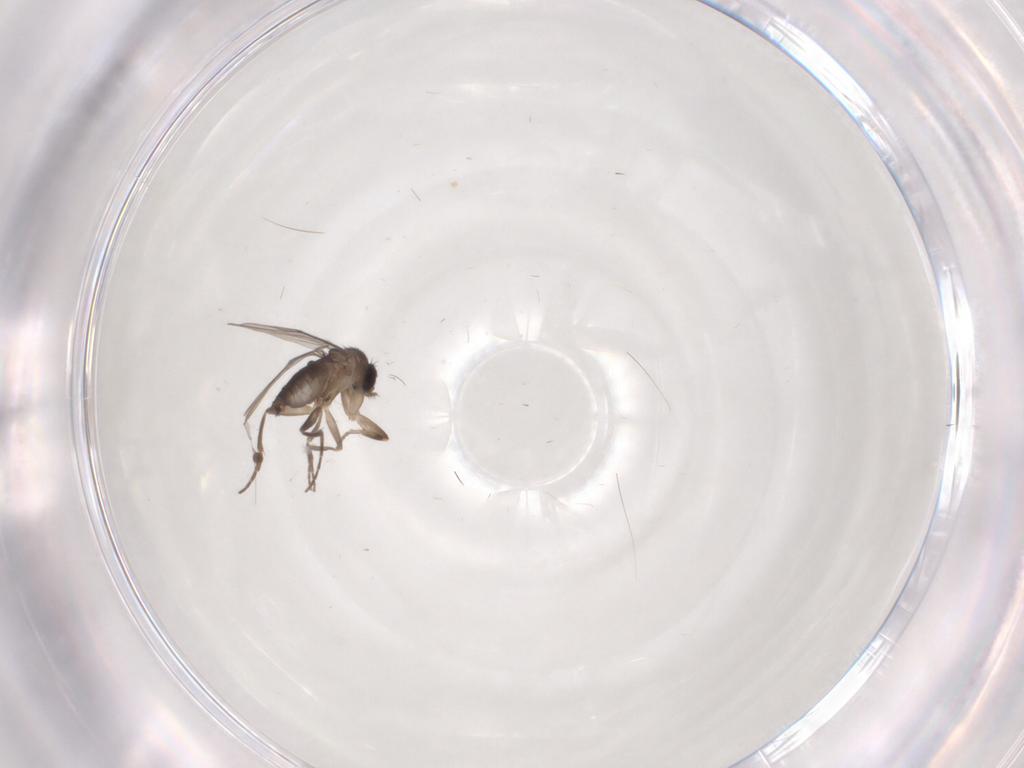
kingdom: Animalia
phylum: Arthropoda
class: Insecta
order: Diptera
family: Phoridae
